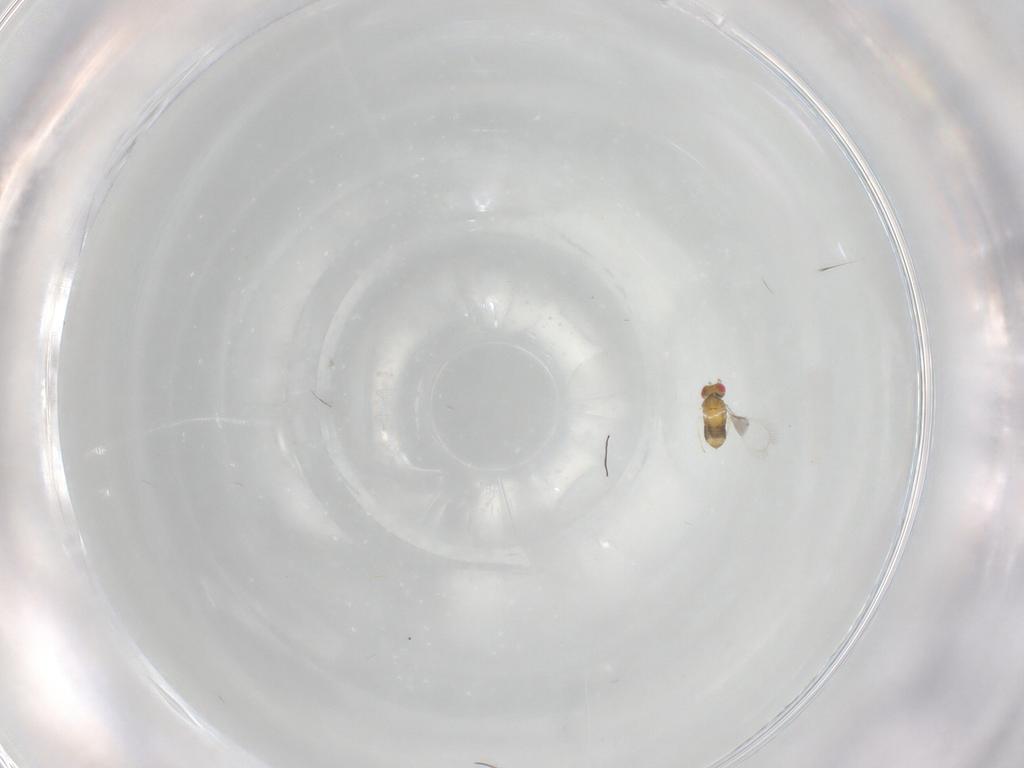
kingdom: Animalia
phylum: Arthropoda
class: Insecta
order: Hymenoptera
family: Trichogrammatidae
